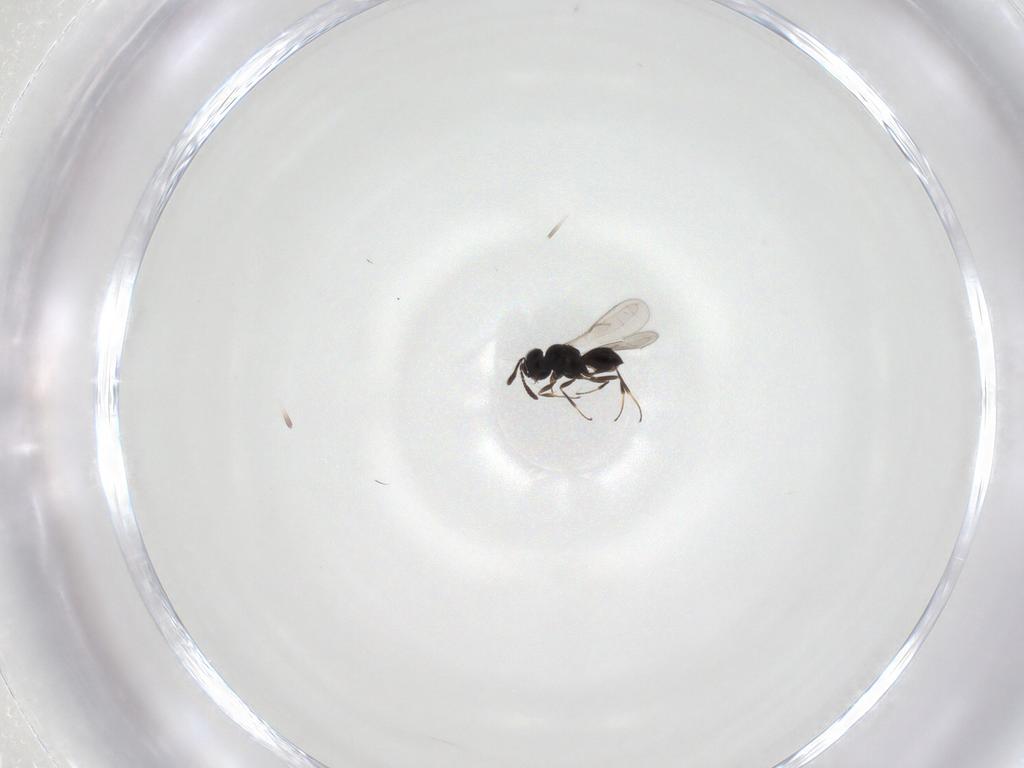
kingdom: Animalia
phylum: Arthropoda
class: Insecta
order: Hymenoptera
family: Scelionidae
